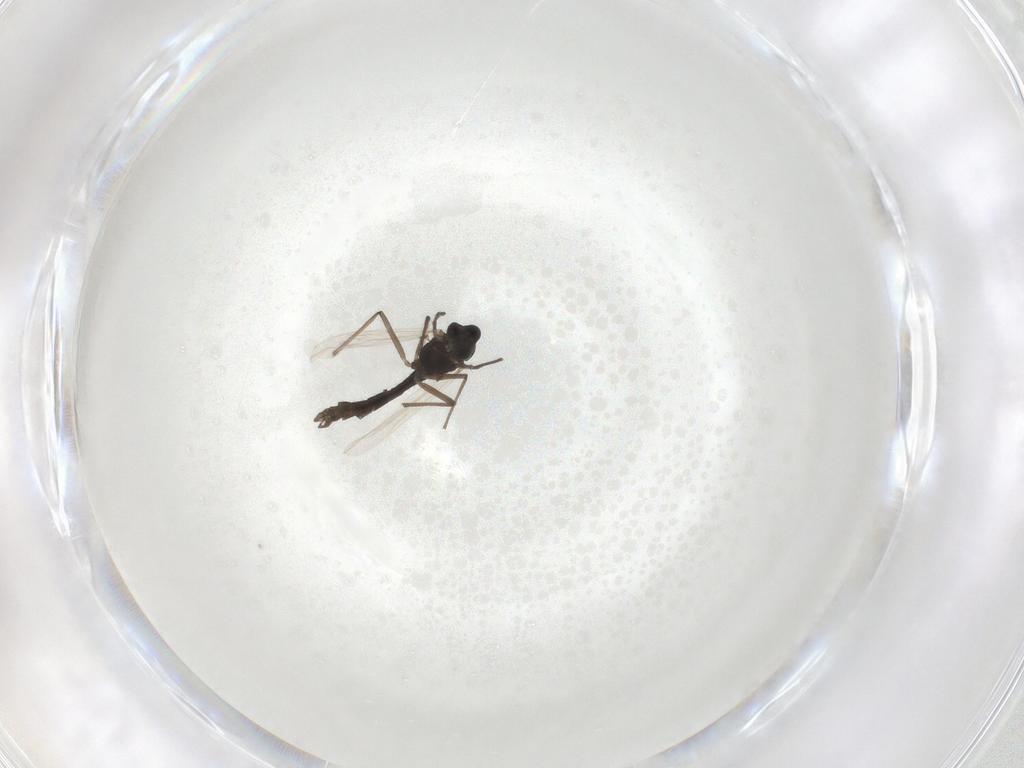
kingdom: Animalia
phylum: Arthropoda
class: Insecta
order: Diptera
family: Chironomidae
